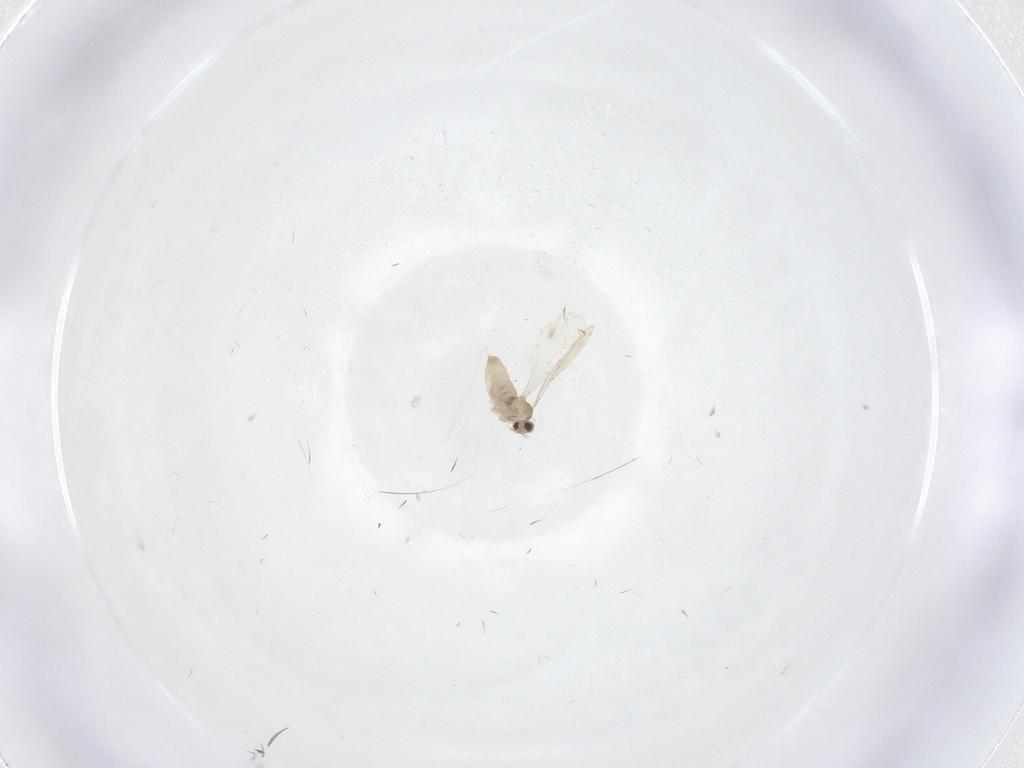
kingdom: Animalia
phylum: Arthropoda
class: Insecta
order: Diptera
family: Chironomidae
